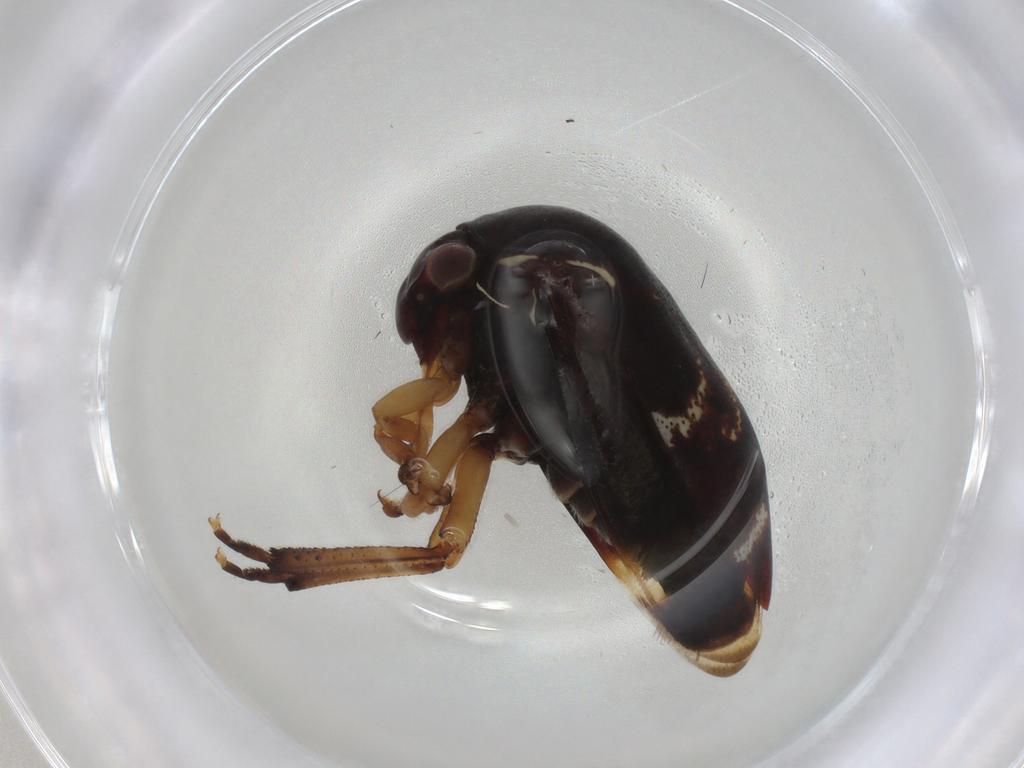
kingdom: Animalia
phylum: Arthropoda
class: Insecta
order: Hemiptera
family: Membracidae
